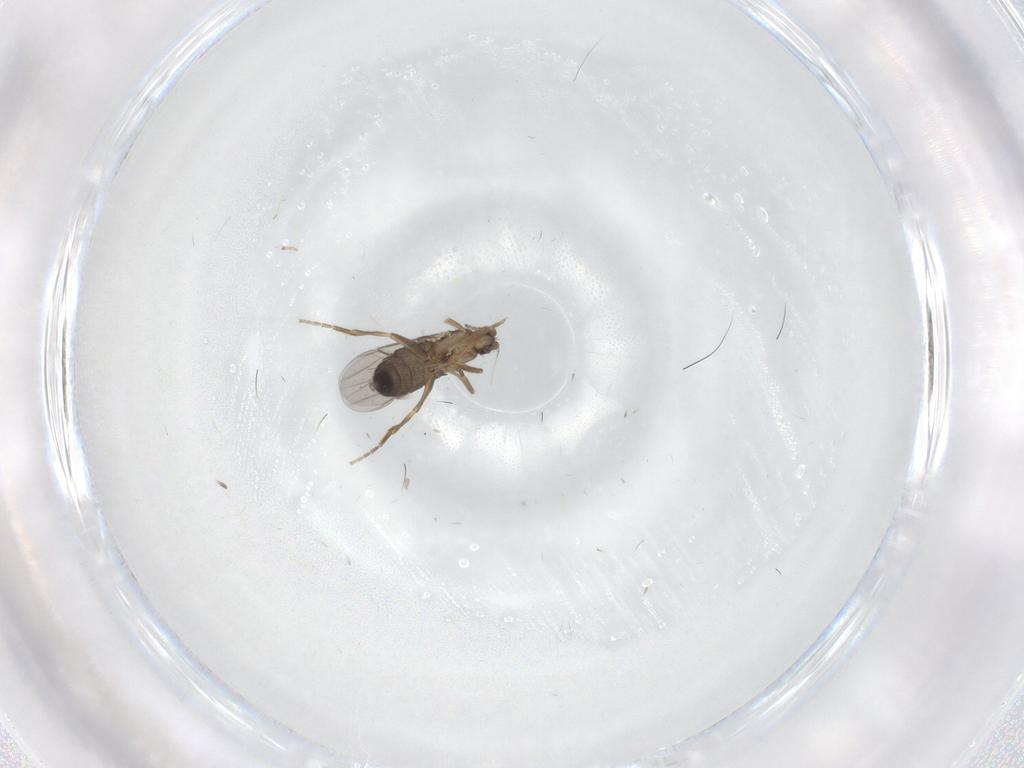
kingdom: Animalia
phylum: Arthropoda
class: Insecta
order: Diptera
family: Phoridae
